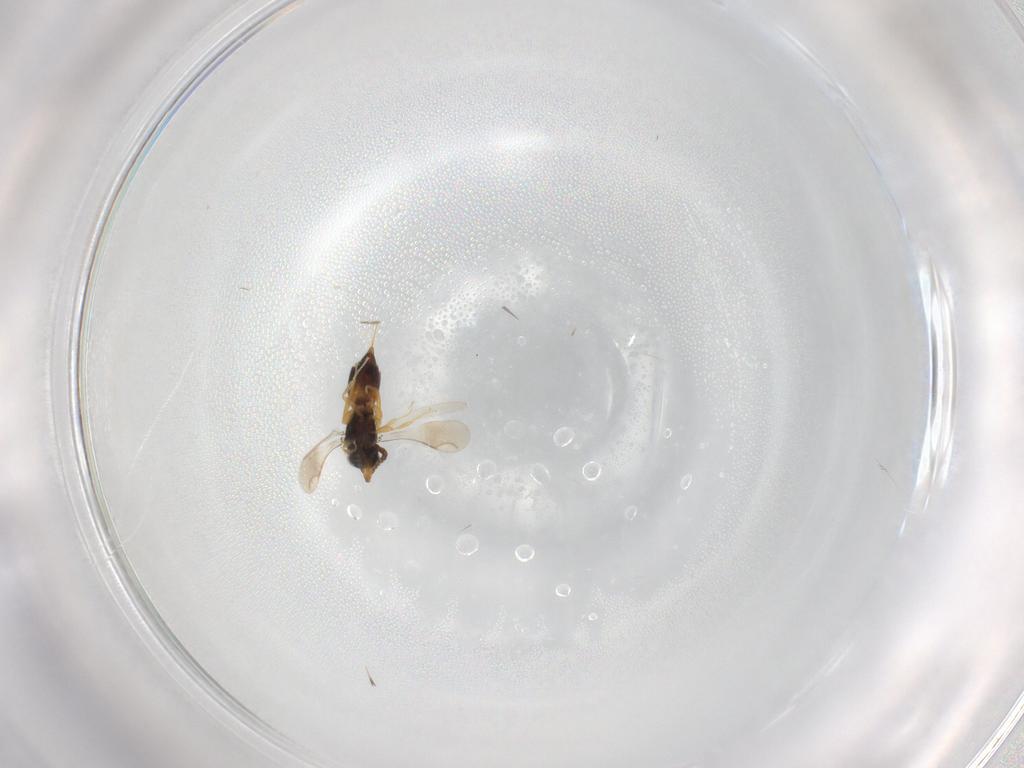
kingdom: Animalia
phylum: Arthropoda
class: Insecta
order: Hymenoptera
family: Ceraphronidae
